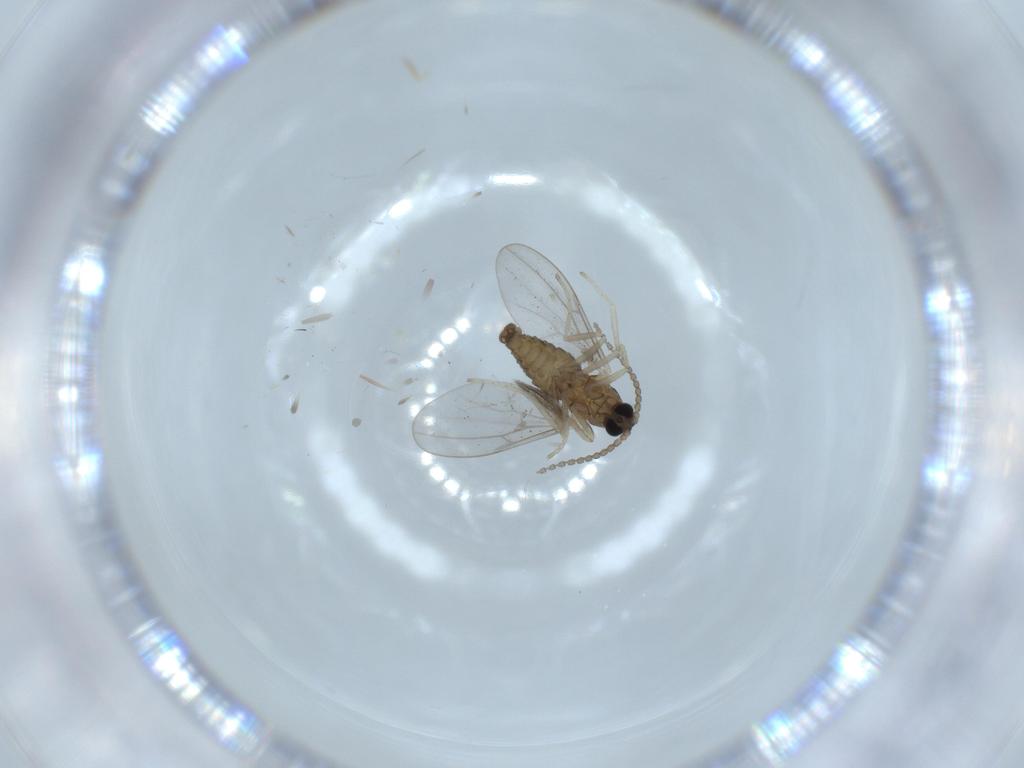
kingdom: Animalia
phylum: Arthropoda
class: Insecta
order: Diptera
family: Cecidomyiidae
